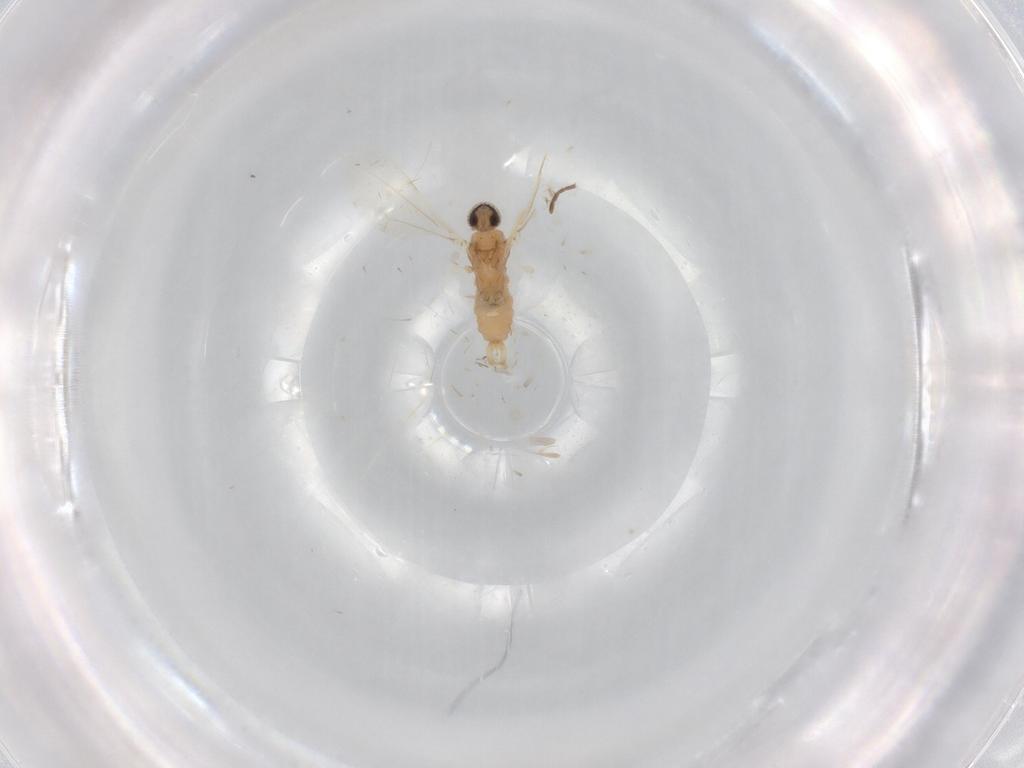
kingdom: Animalia
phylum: Arthropoda
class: Insecta
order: Diptera
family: Cecidomyiidae
